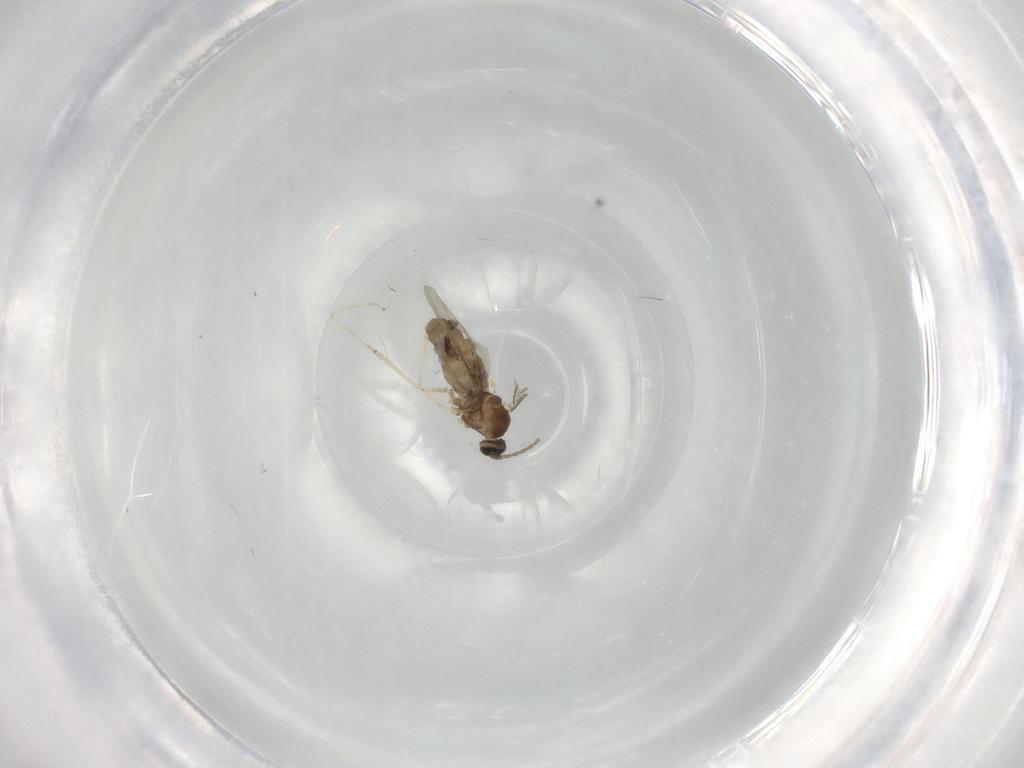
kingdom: Animalia
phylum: Arthropoda
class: Insecta
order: Diptera
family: Cecidomyiidae
